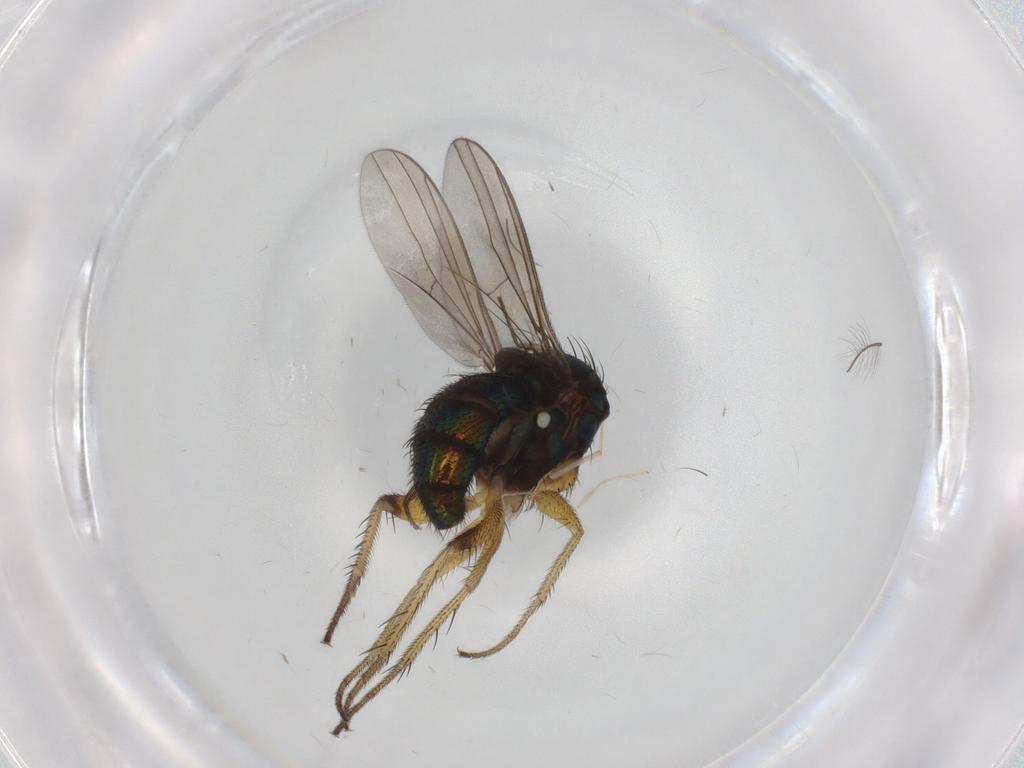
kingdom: Animalia
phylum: Arthropoda
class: Insecta
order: Diptera
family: Dolichopodidae
